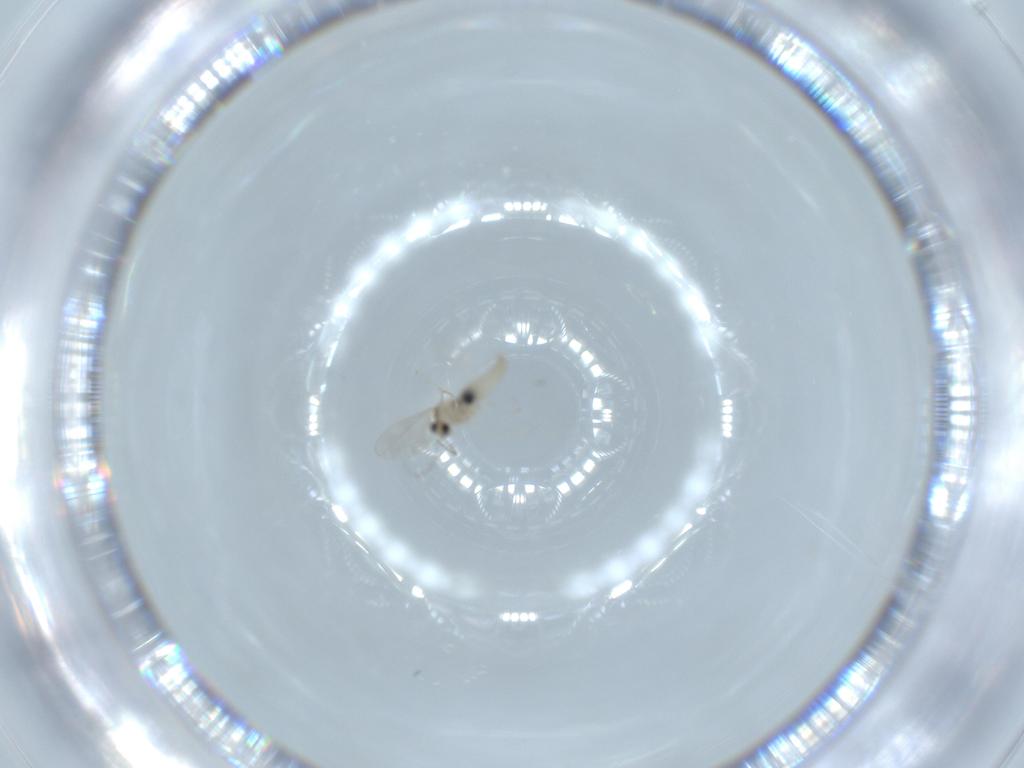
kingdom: Animalia
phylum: Arthropoda
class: Insecta
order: Diptera
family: Cecidomyiidae
